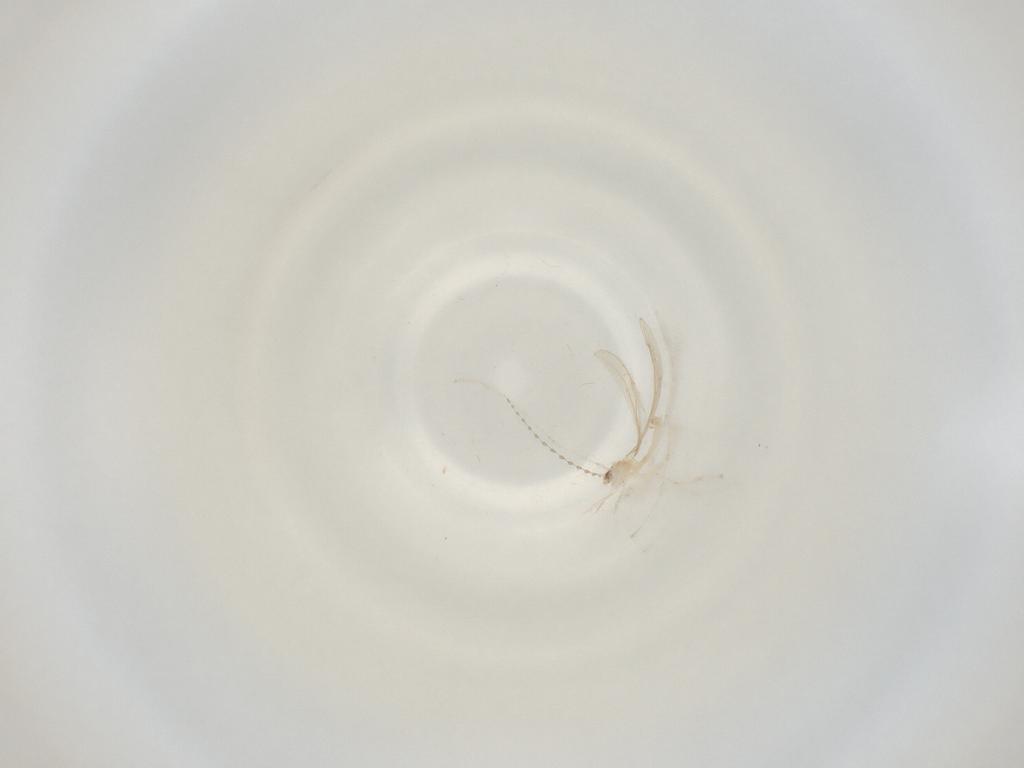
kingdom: Animalia
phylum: Arthropoda
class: Insecta
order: Diptera
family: Cecidomyiidae
